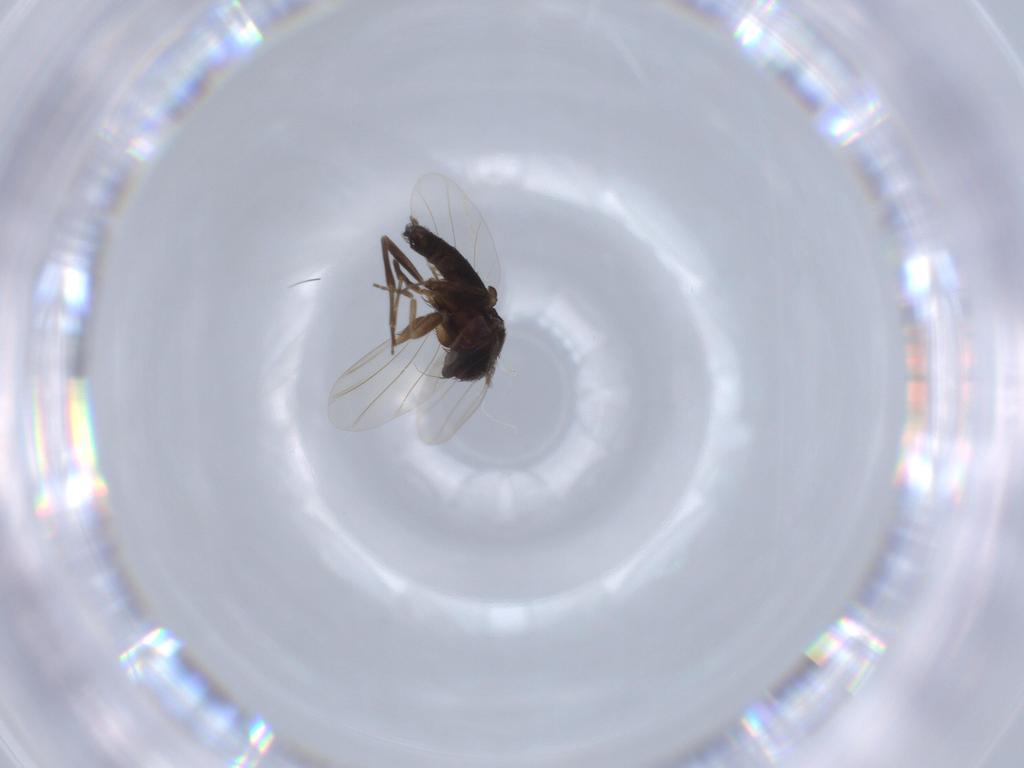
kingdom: Animalia
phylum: Arthropoda
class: Insecta
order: Diptera
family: Phoridae
